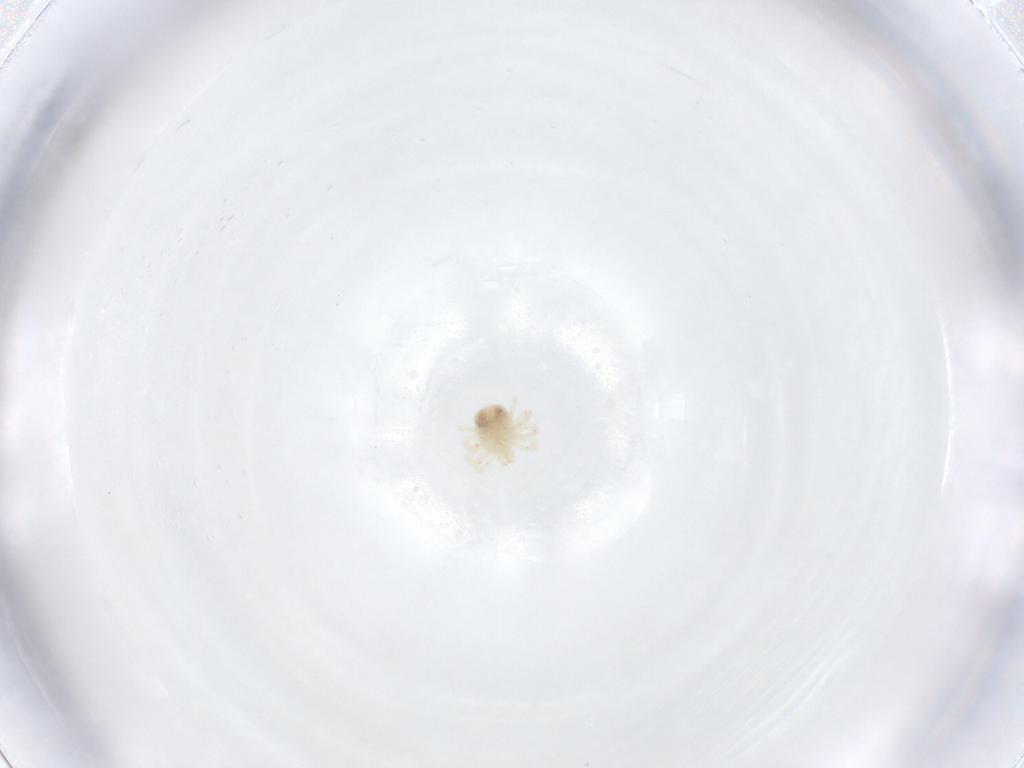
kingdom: Animalia
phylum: Arthropoda
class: Arachnida
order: Trombidiformes
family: Anystidae
